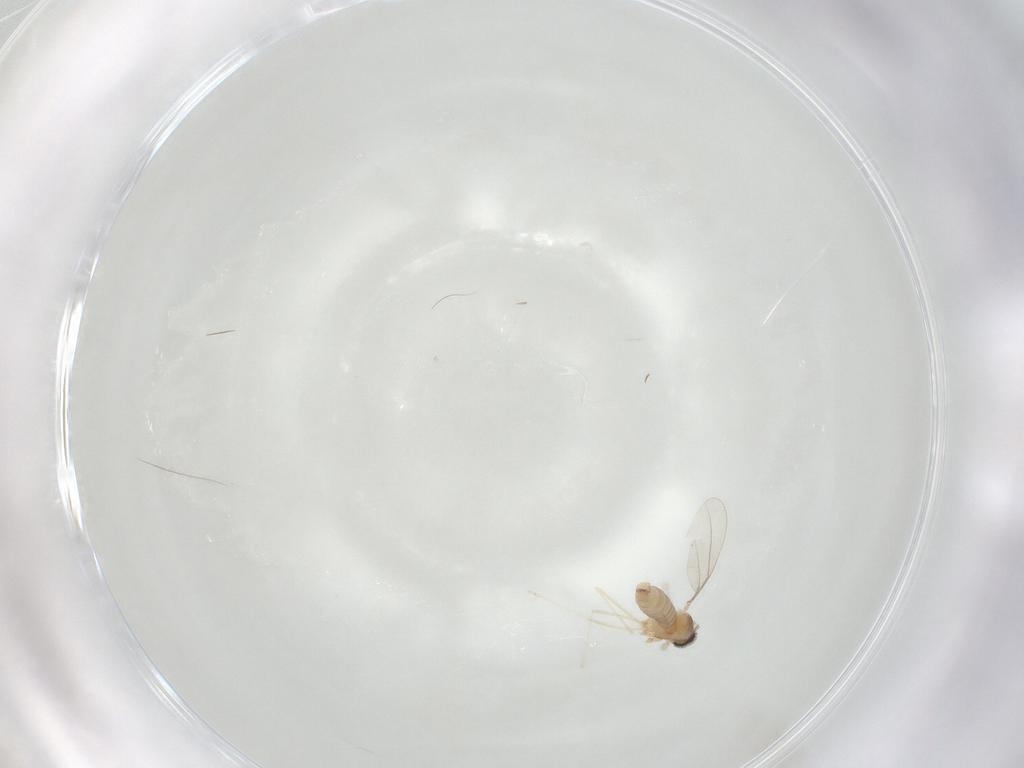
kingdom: Animalia
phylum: Arthropoda
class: Insecta
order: Diptera
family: Cecidomyiidae
